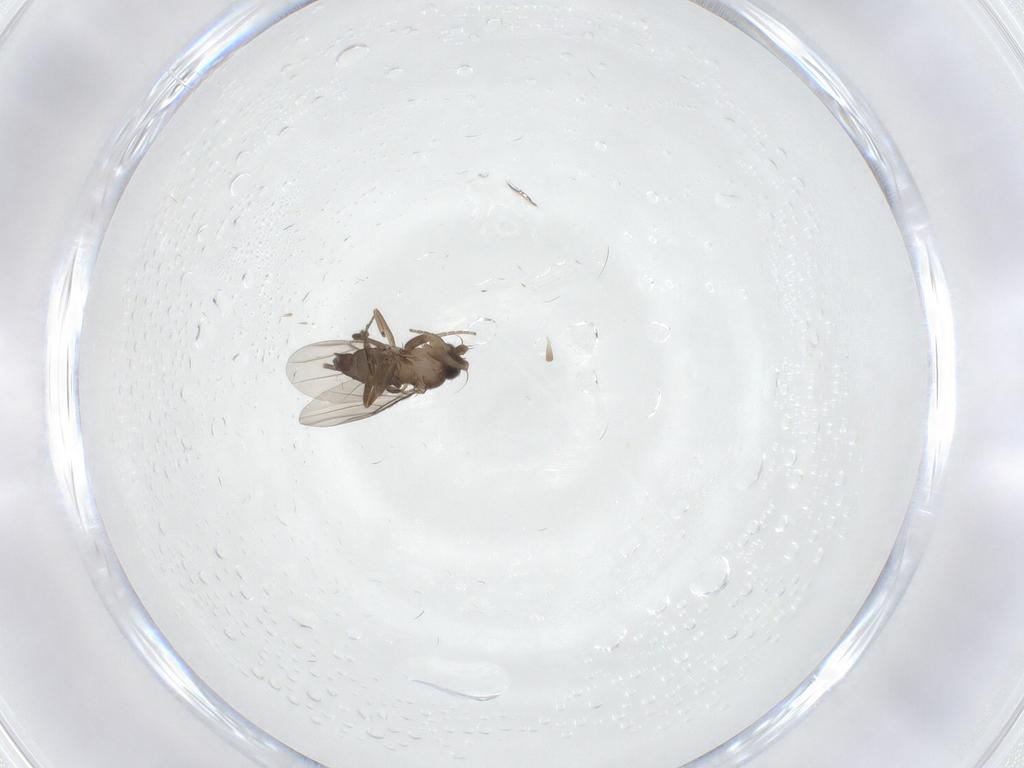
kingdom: Animalia
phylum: Arthropoda
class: Insecta
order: Diptera
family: Phoridae
